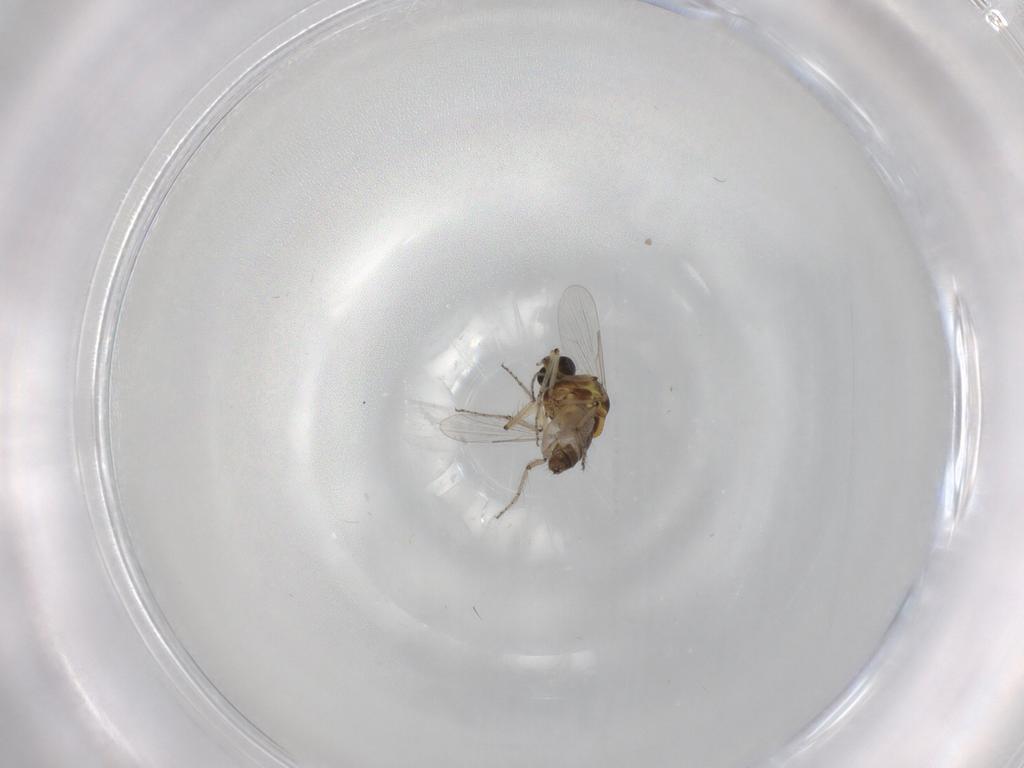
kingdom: Animalia
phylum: Arthropoda
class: Insecta
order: Diptera
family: Ceratopogonidae
